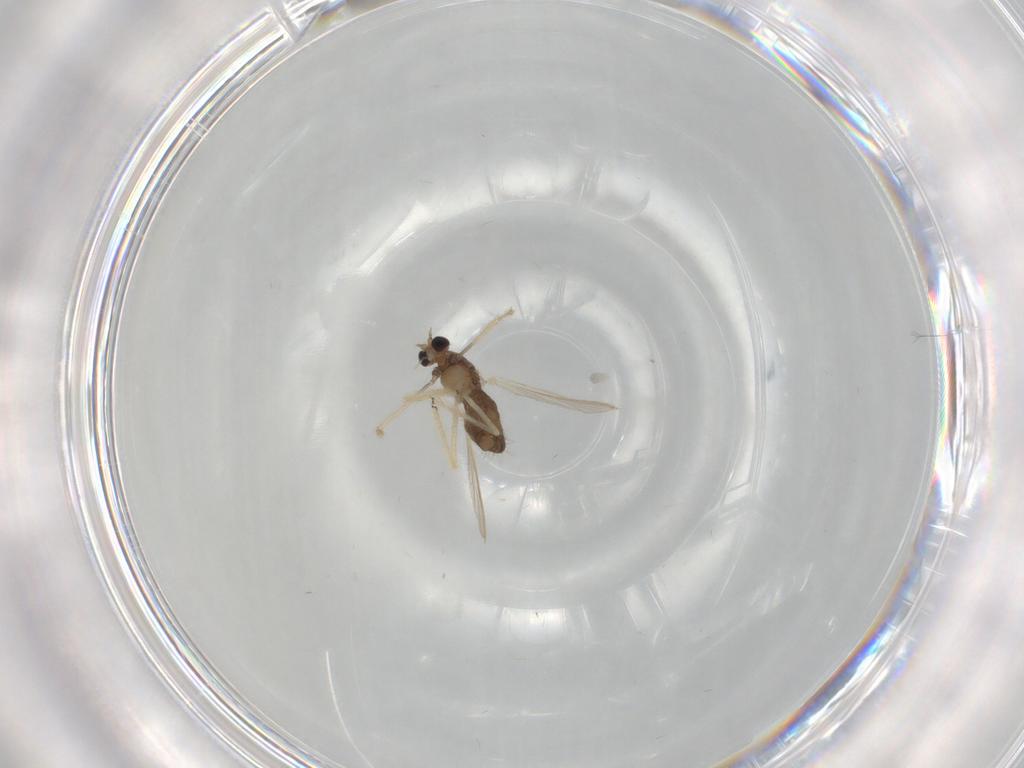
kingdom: Animalia
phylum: Arthropoda
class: Insecta
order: Diptera
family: Chironomidae
